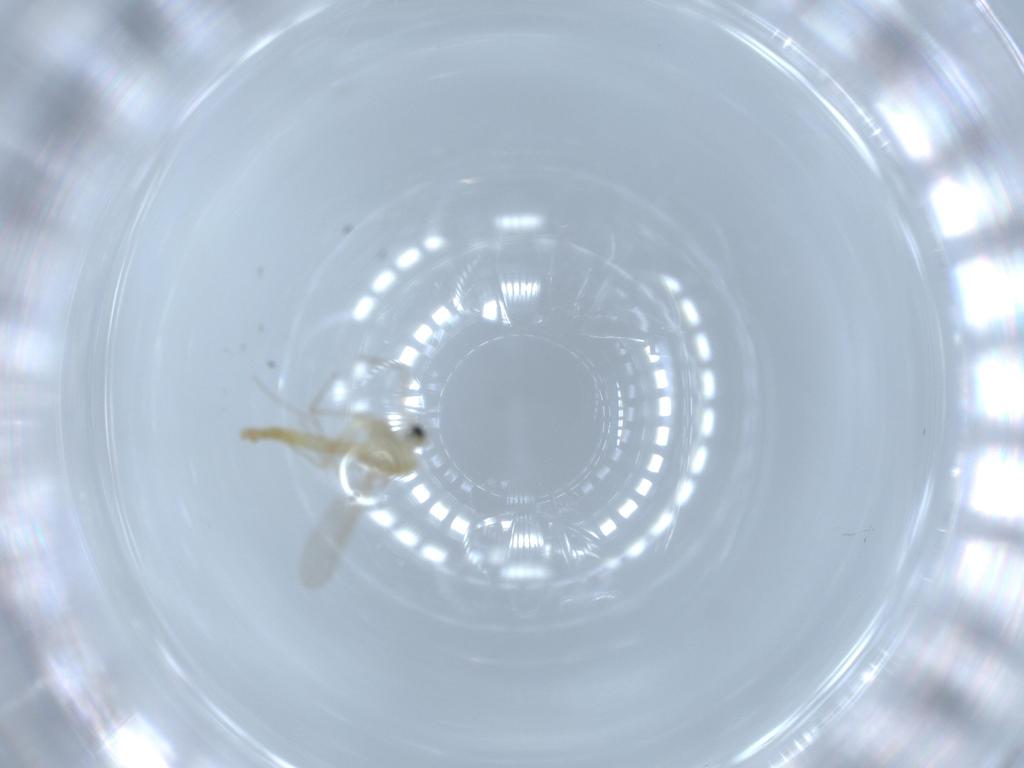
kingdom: Animalia
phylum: Arthropoda
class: Insecta
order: Diptera
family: Chironomidae
